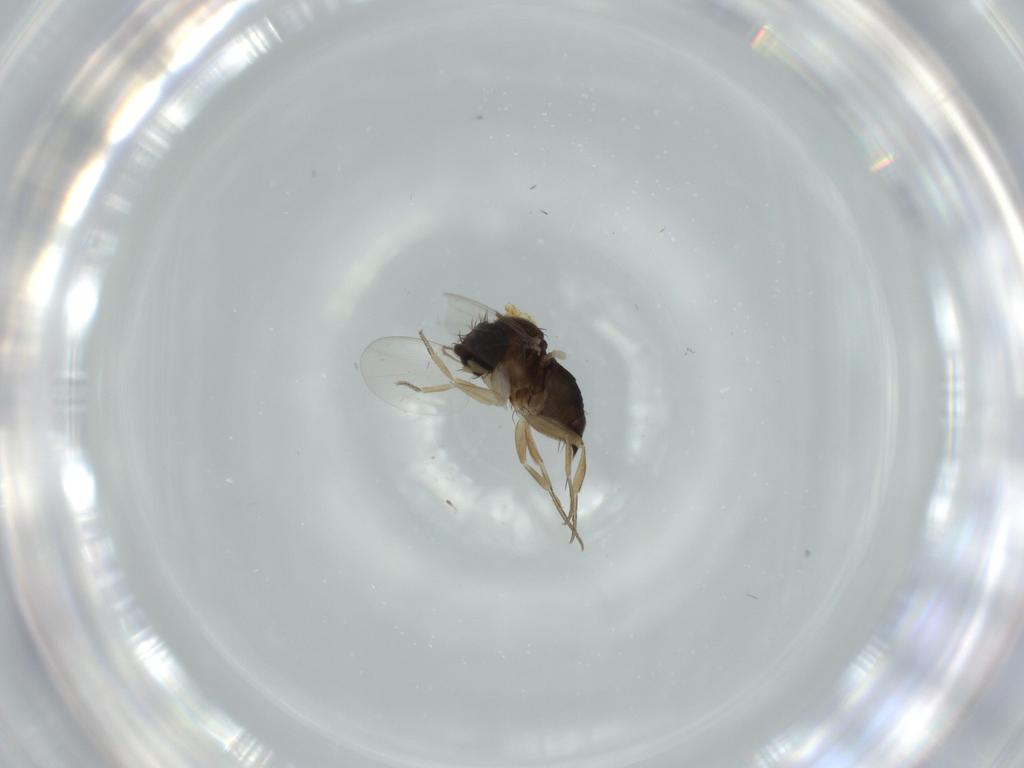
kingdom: Animalia
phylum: Arthropoda
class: Insecta
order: Diptera
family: Phoridae
